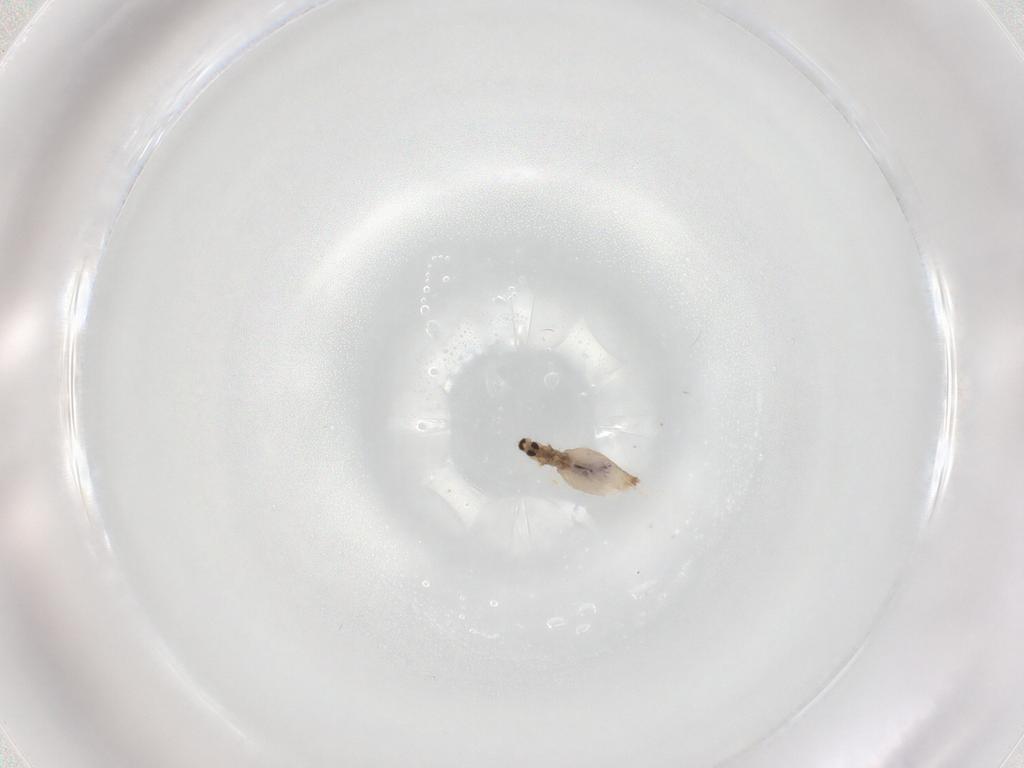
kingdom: Animalia
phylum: Arthropoda
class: Insecta
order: Diptera
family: Cecidomyiidae
